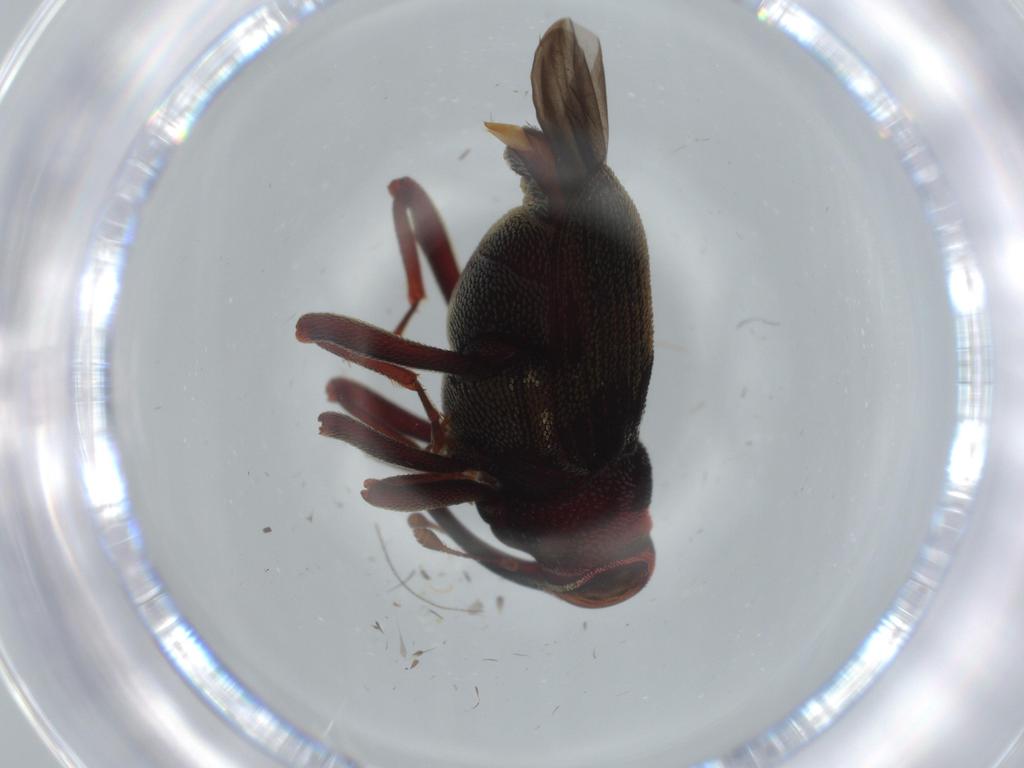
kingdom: Animalia
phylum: Arthropoda
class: Insecta
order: Coleoptera
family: Curculionidae
